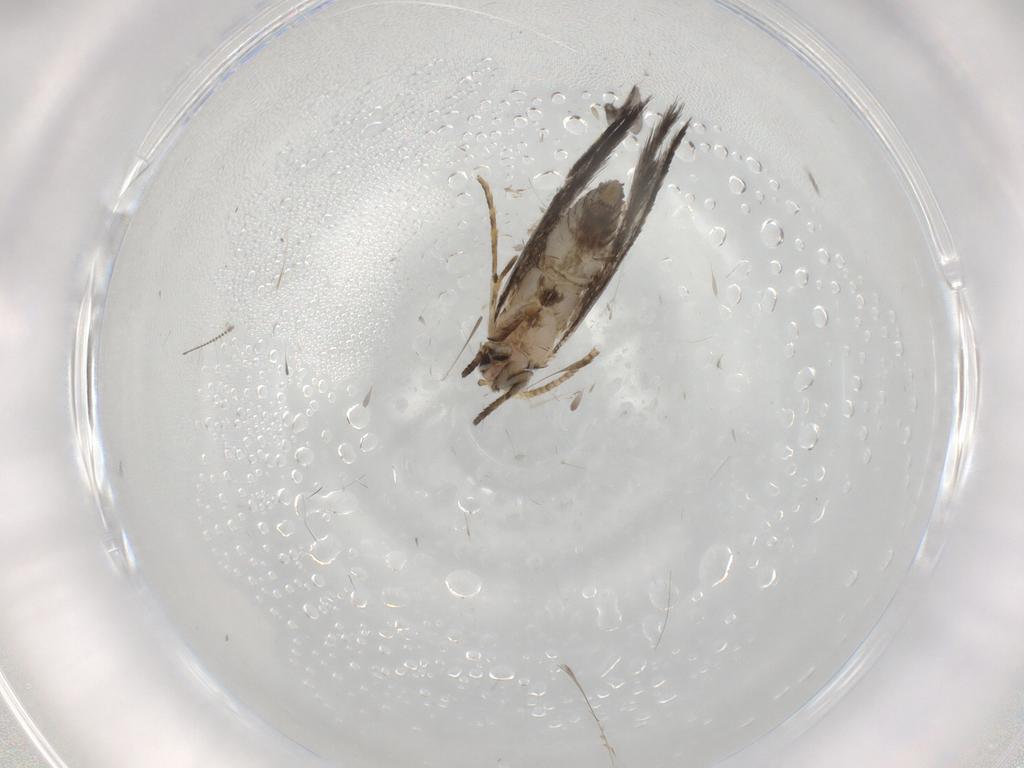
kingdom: Animalia
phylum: Arthropoda
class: Insecta
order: Lepidoptera
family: Tineidae
